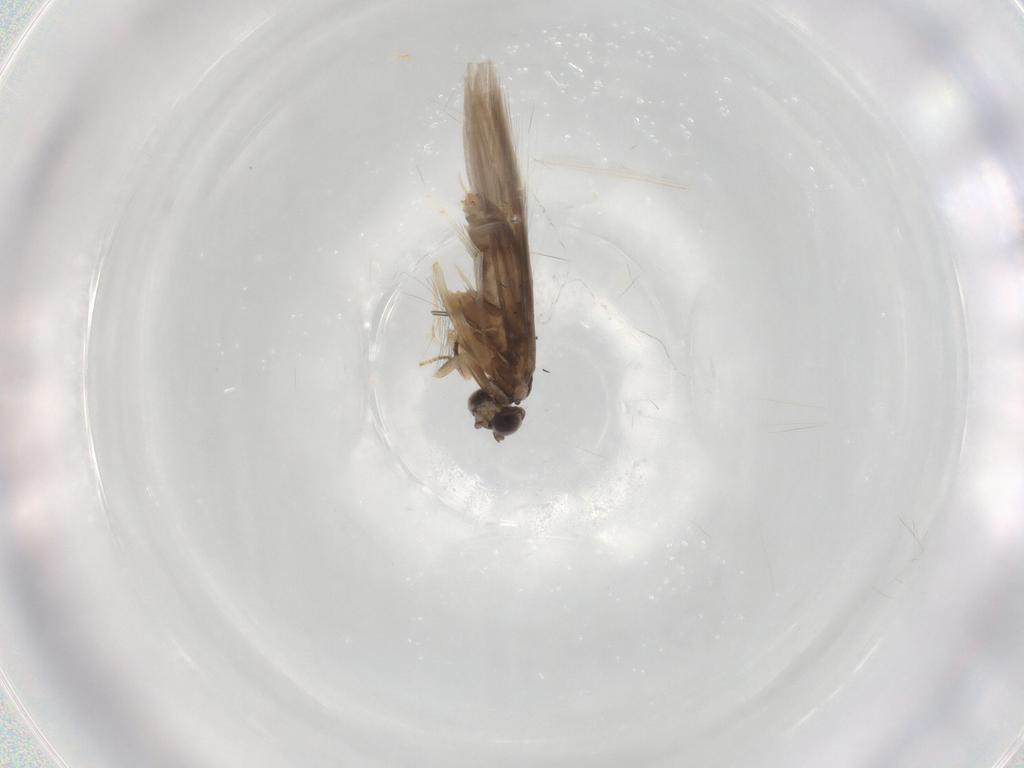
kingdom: Animalia
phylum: Arthropoda
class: Insecta
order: Trichoptera
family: Hydroptilidae
